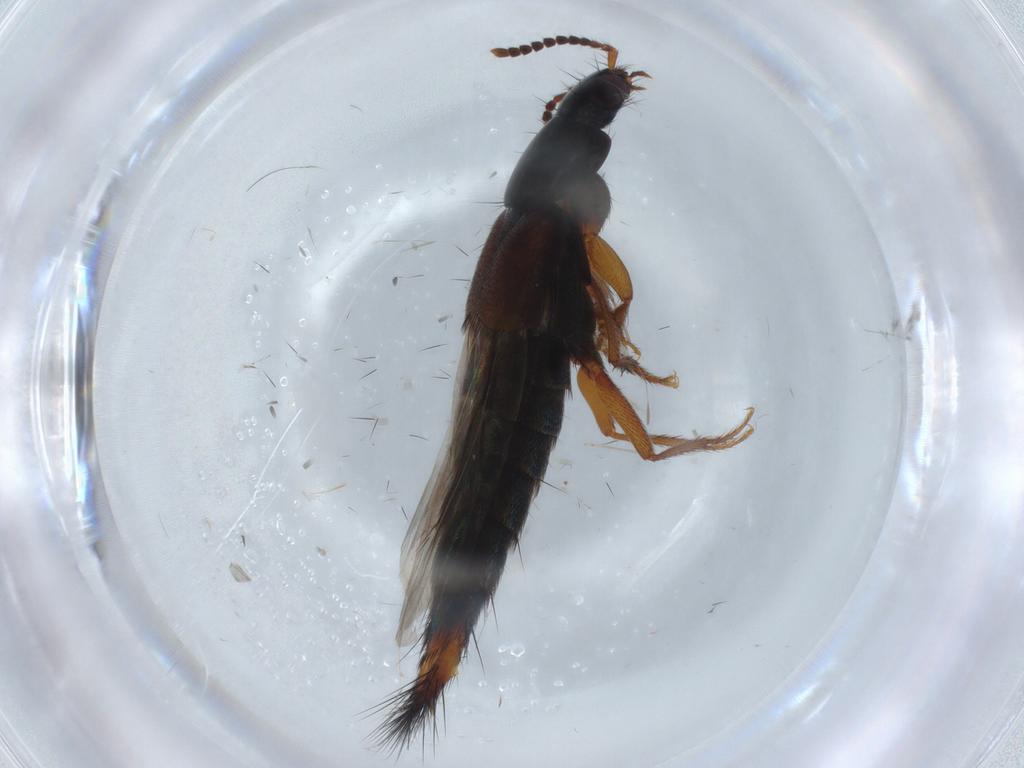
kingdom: Animalia
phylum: Arthropoda
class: Insecta
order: Coleoptera
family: Staphylinidae
